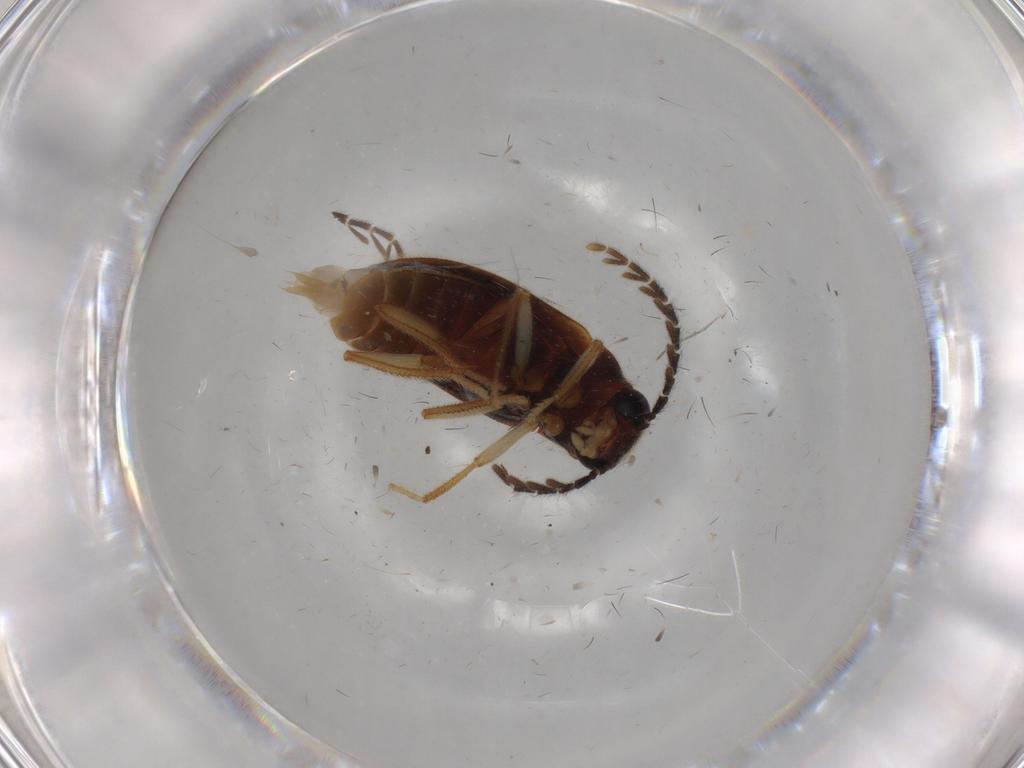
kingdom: Animalia
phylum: Arthropoda
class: Insecta
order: Coleoptera
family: Ptilodactylidae
